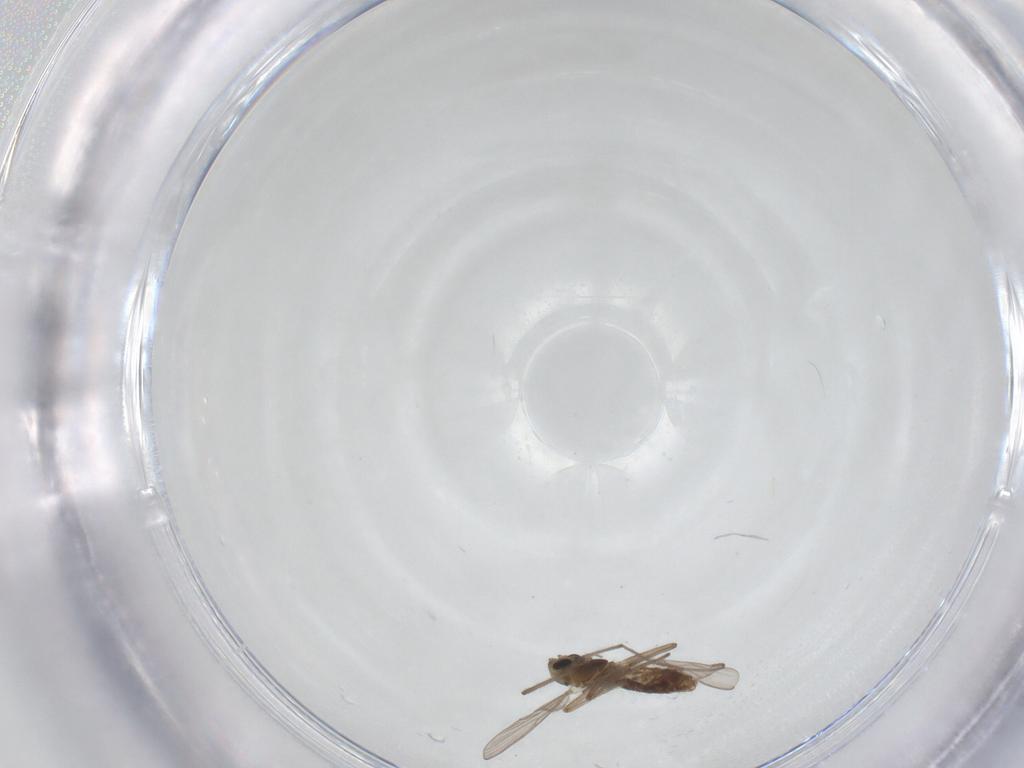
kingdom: Animalia
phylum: Arthropoda
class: Insecta
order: Diptera
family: Chironomidae
